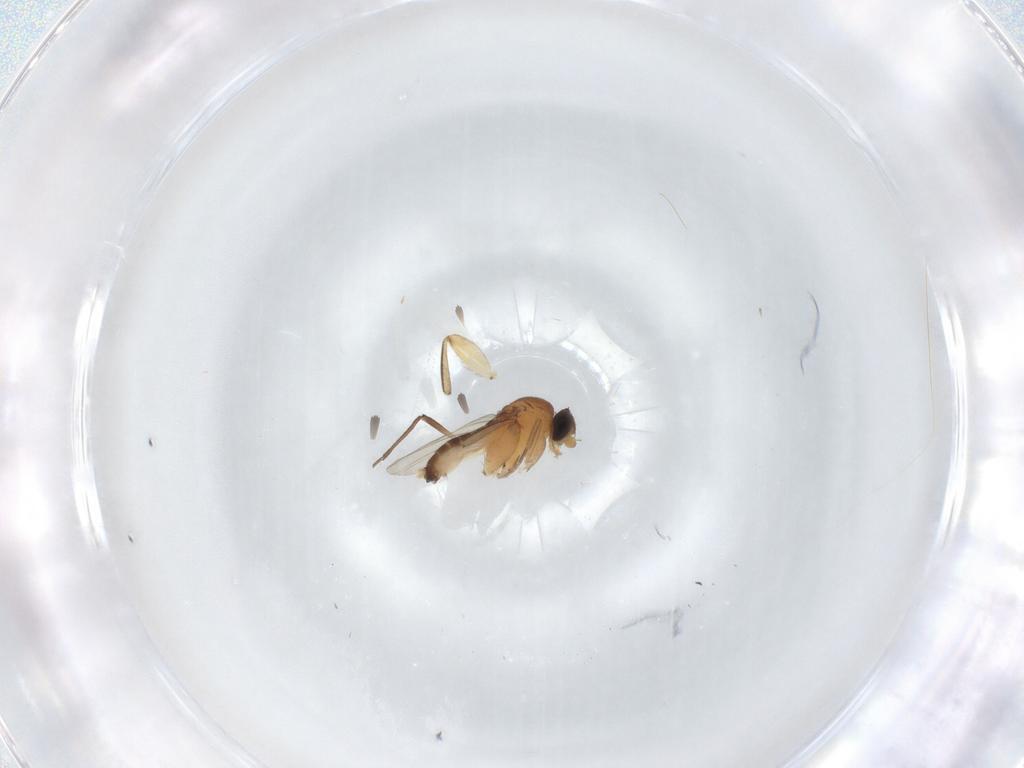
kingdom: Animalia
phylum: Arthropoda
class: Insecta
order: Diptera
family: Phoridae
